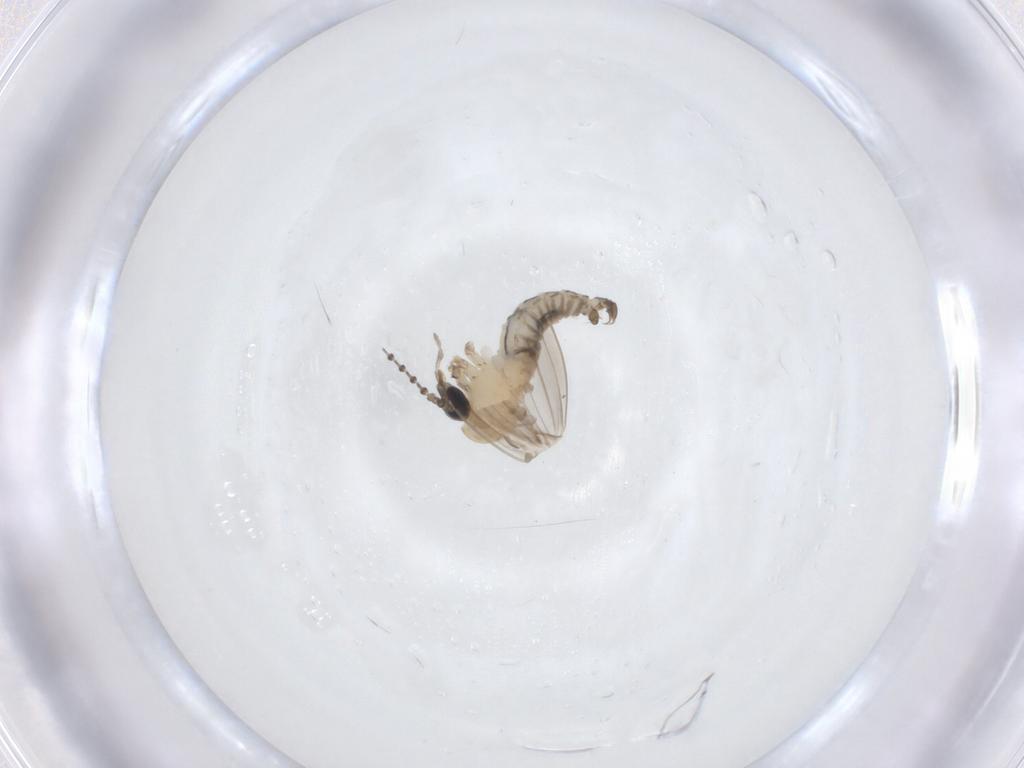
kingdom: Animalia
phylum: Arthropoda
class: Insecta
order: Diptera
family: Psychodidae
